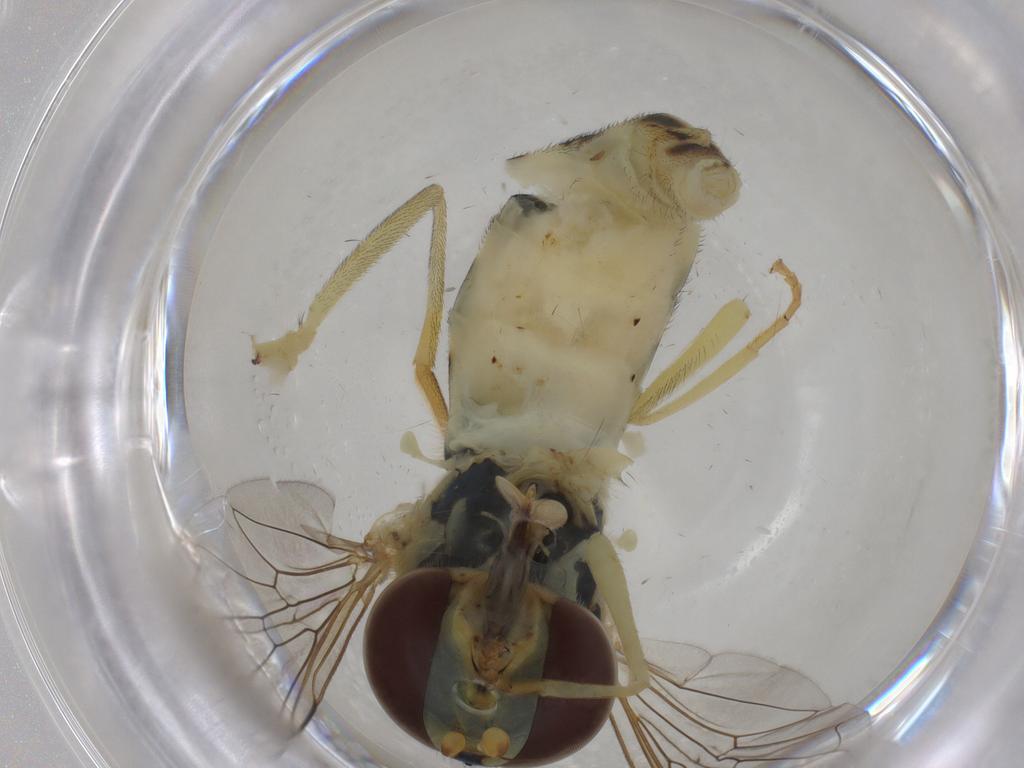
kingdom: Animalia
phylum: Arthropoda
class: Insecta
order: Diptera
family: Syrphidae
